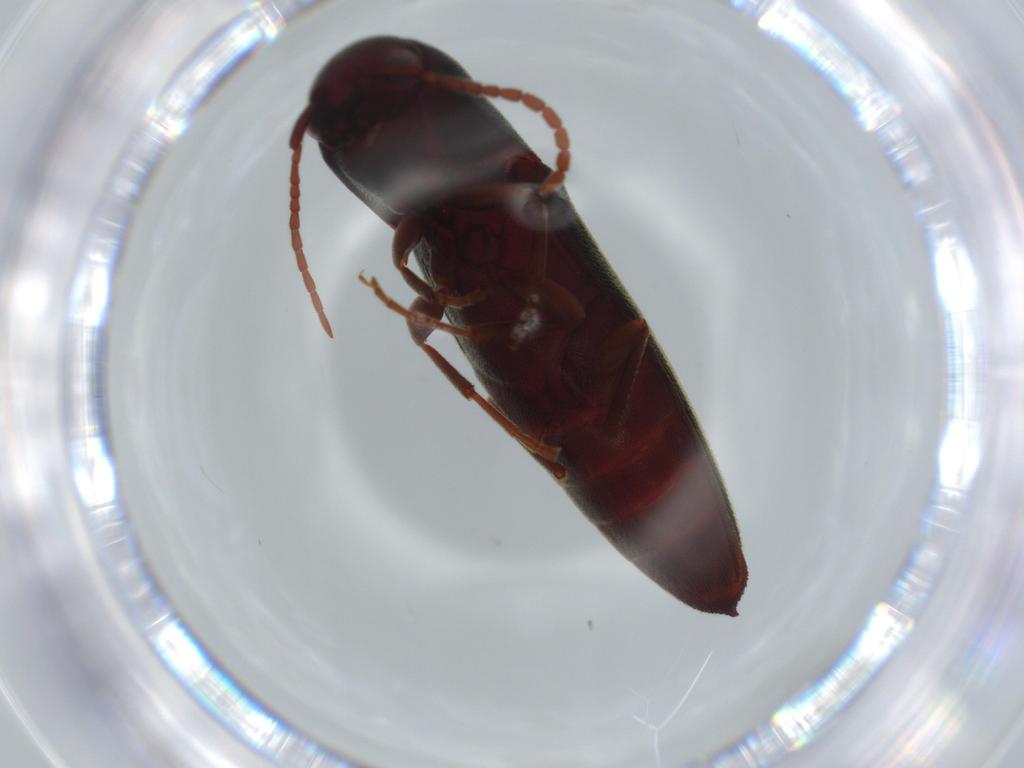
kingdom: Animalia
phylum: Arthropoda
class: Insecta
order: Coleoptera
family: Eucnemidae
